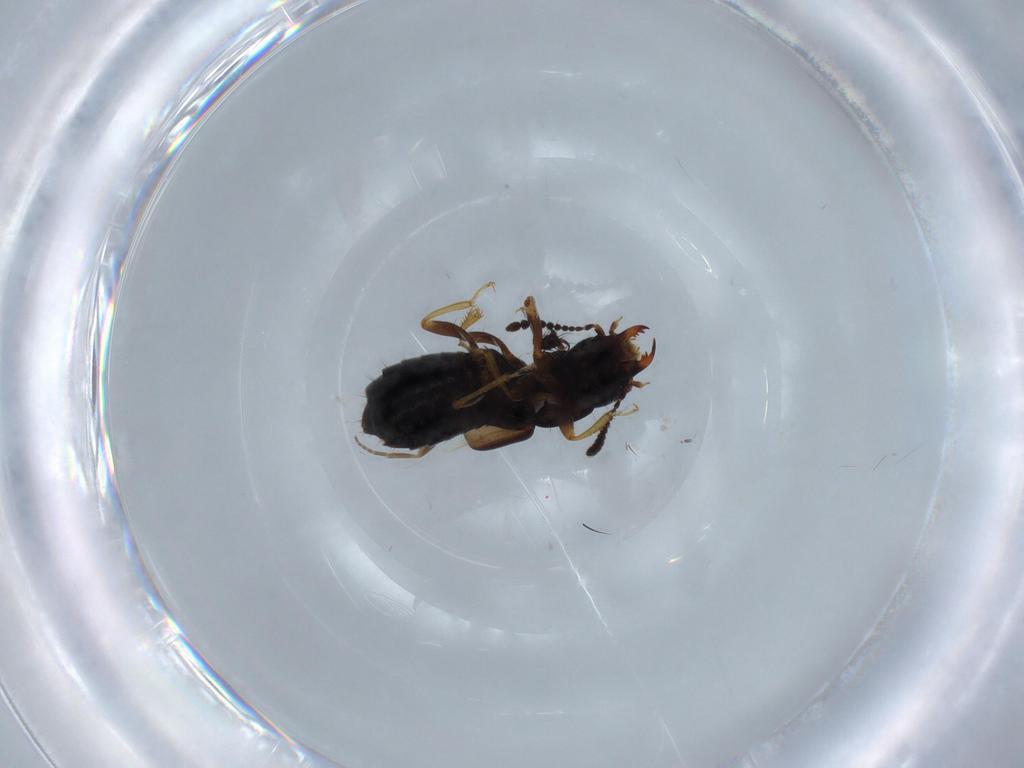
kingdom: Animalia
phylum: Arthropoda
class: Insecta
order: Coleoptera
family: Staphylinidae
